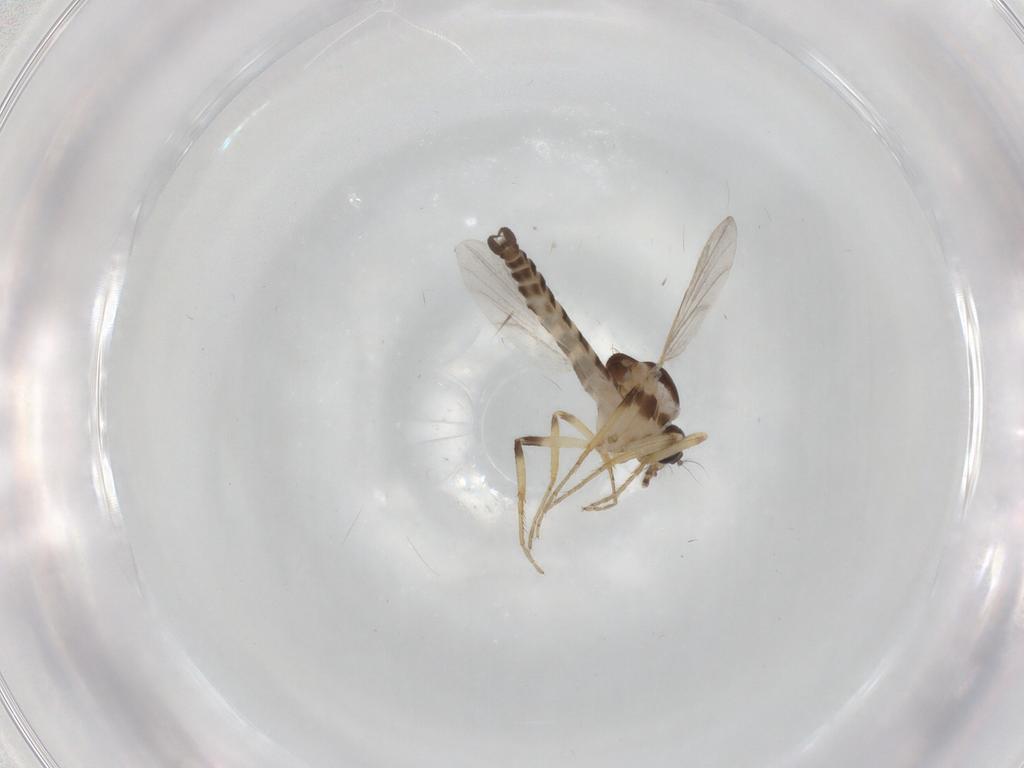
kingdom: Animalia
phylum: Arthropoda
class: Insecta
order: Diptera
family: Ceratopogonidae
